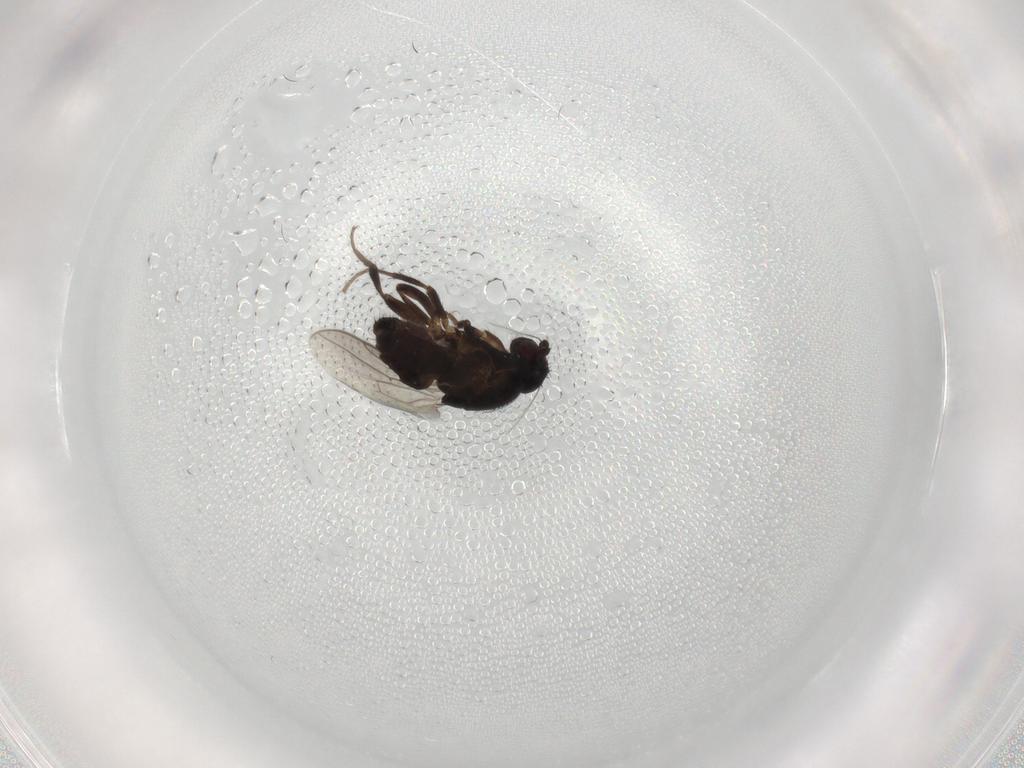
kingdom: Animalia
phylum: Arthropoda
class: Insecta
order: Diptera
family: Sphaeroceridae
